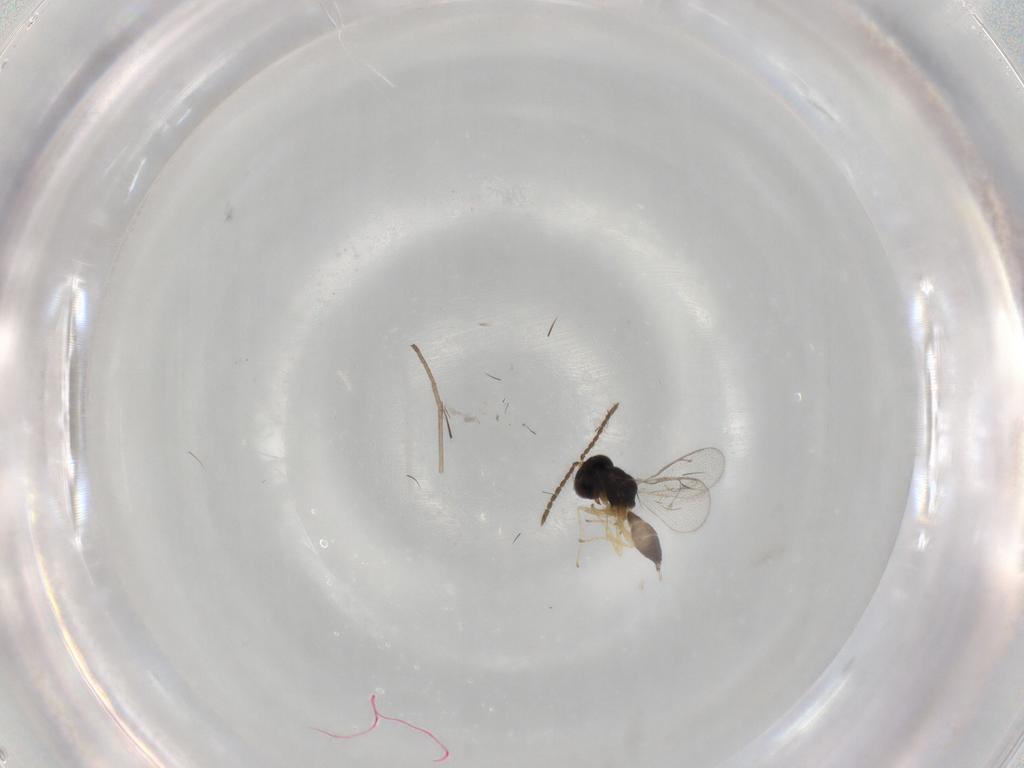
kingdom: Animalia
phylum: Arthropoda
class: Insecta
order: Hymenoptera
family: Pteromalidae
